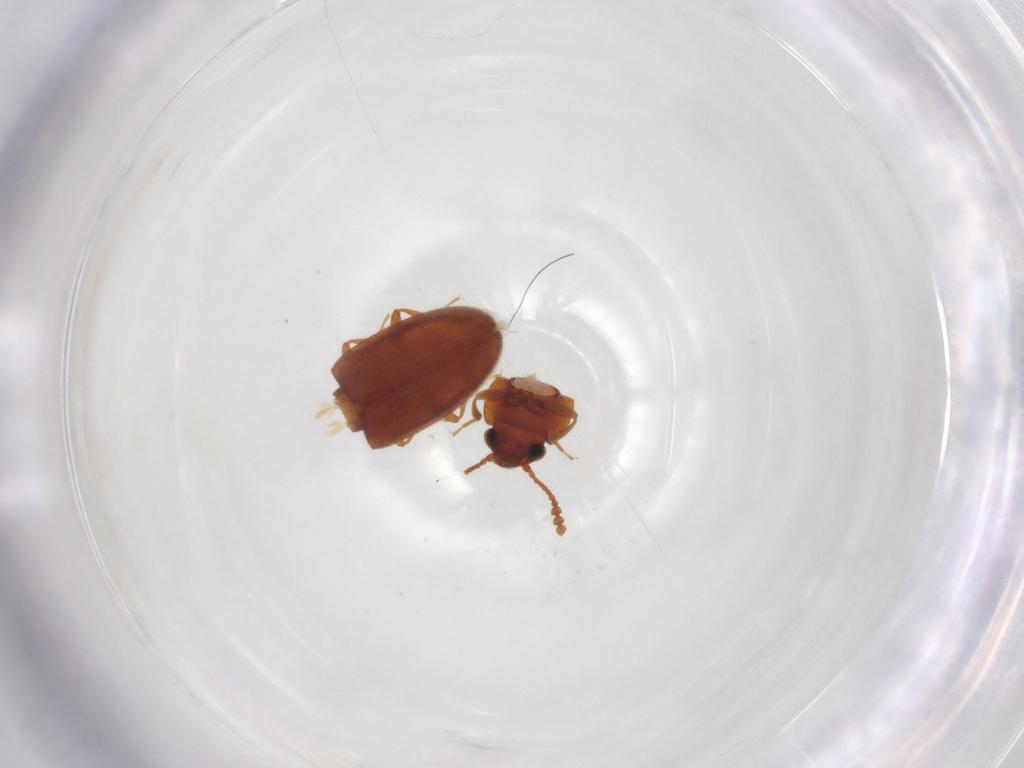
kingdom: Animalia
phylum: Arthropoda
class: Insecta
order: Coleoptera
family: Erotylidae
